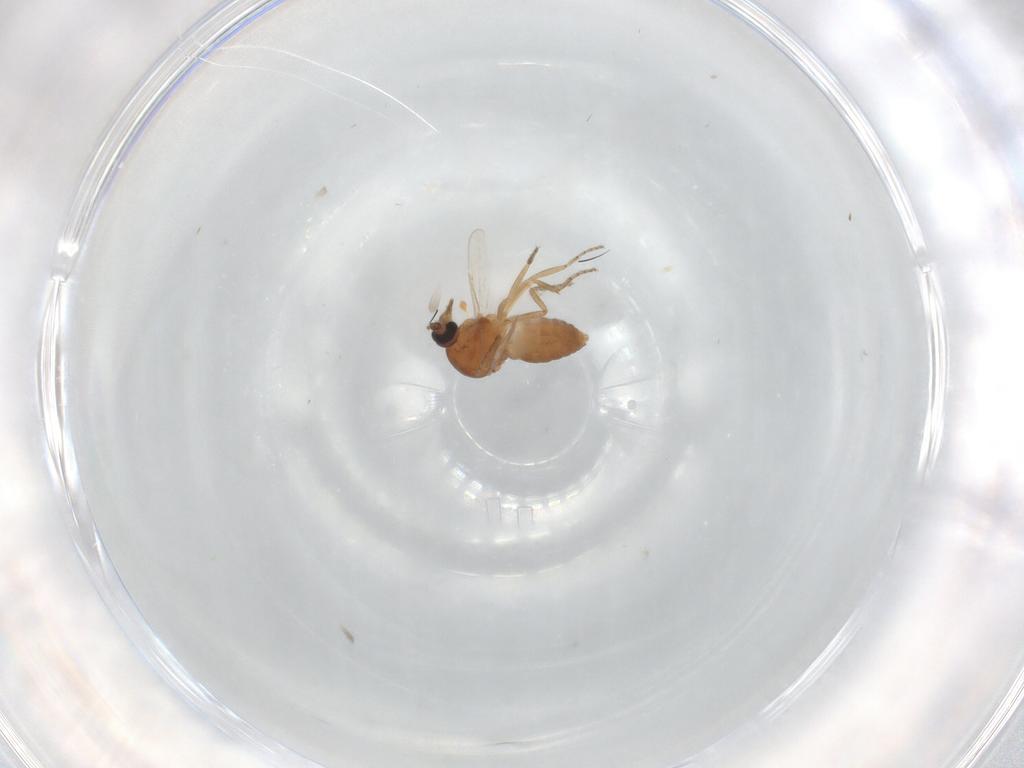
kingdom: Animalia
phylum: Arthropoda
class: Insecta
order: Diptera
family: Ceratopogonidae
